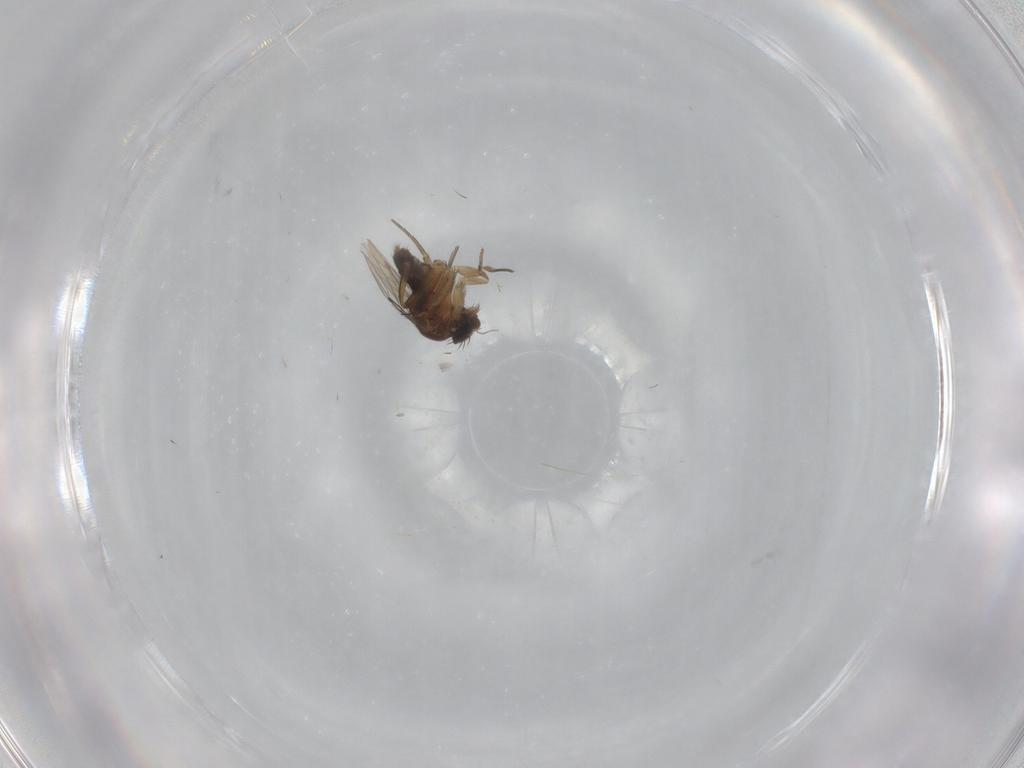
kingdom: Animalia
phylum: Arthropoda
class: Insecta
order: Diptera
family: Phoridae
